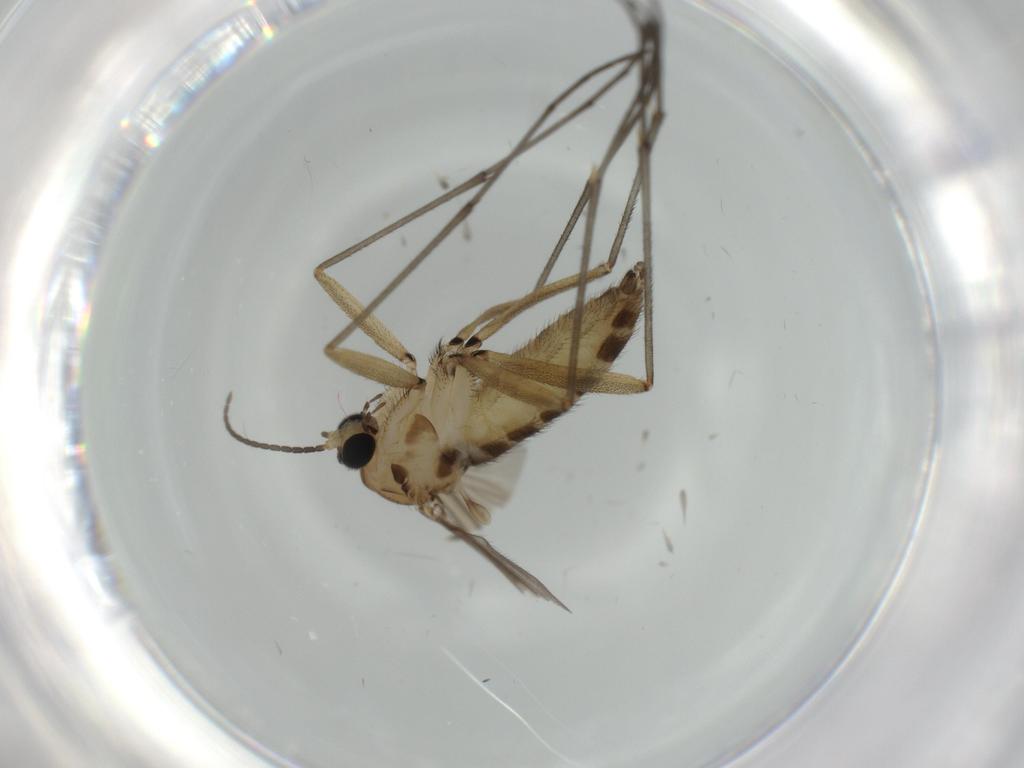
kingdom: Animalia
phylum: Arthropoda
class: Insecta
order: Diptera
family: Sciaridae
